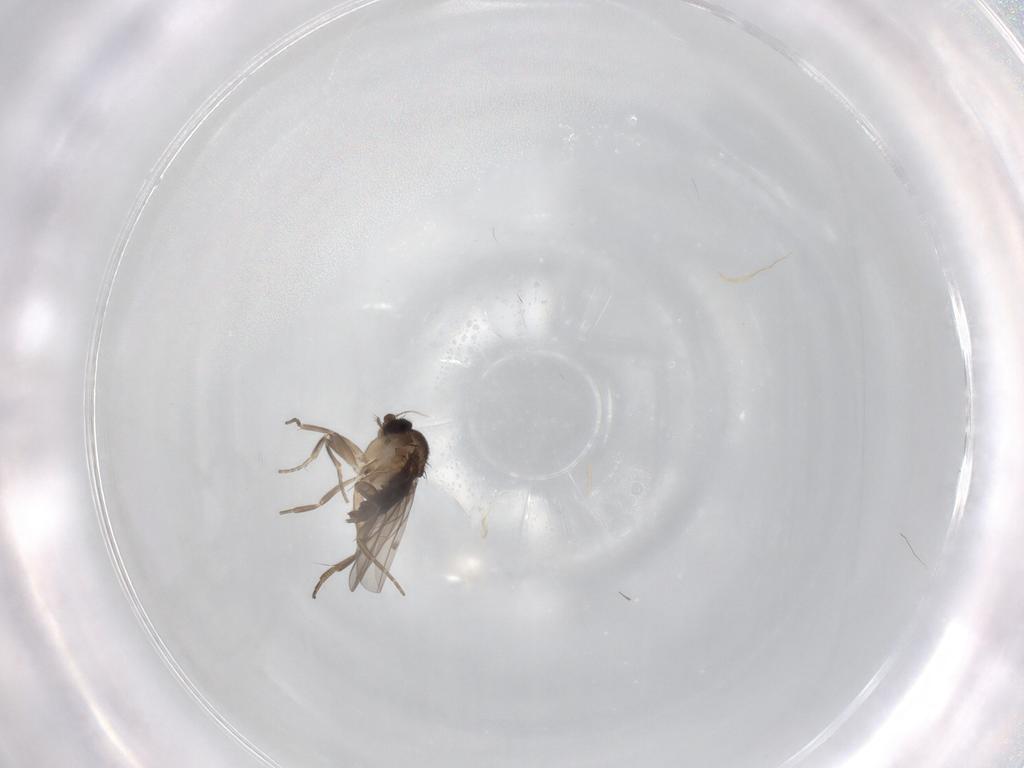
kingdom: Animalia
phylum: Arthropoda
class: Insecta
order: Diptera
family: Phoridae
